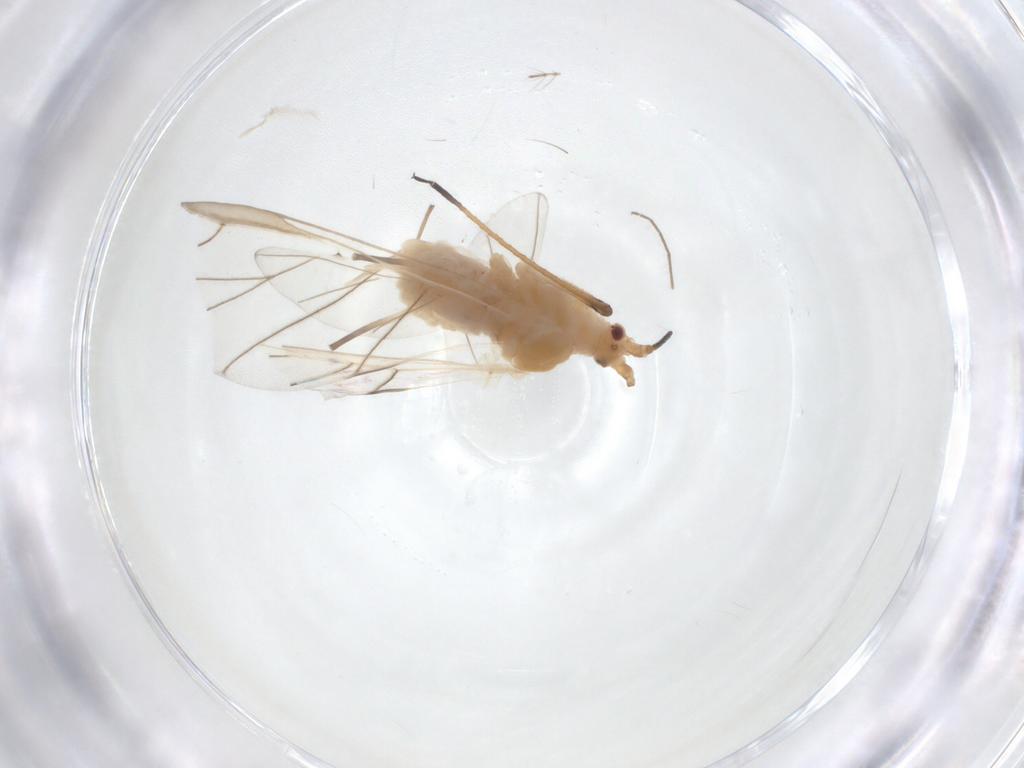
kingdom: Animalia
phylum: Arthropoda
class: Insecta
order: Hemiptera
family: Aphididae
